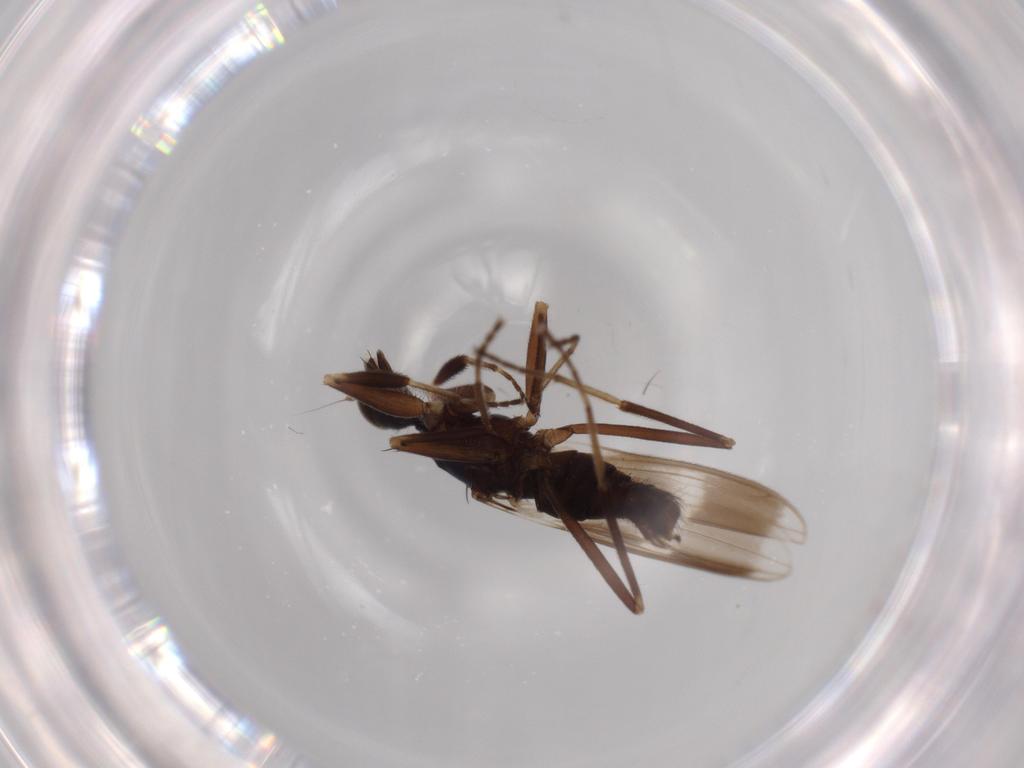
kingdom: Animalia
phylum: Arthropoda
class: Insecta
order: Diptera
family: Hybotidae
